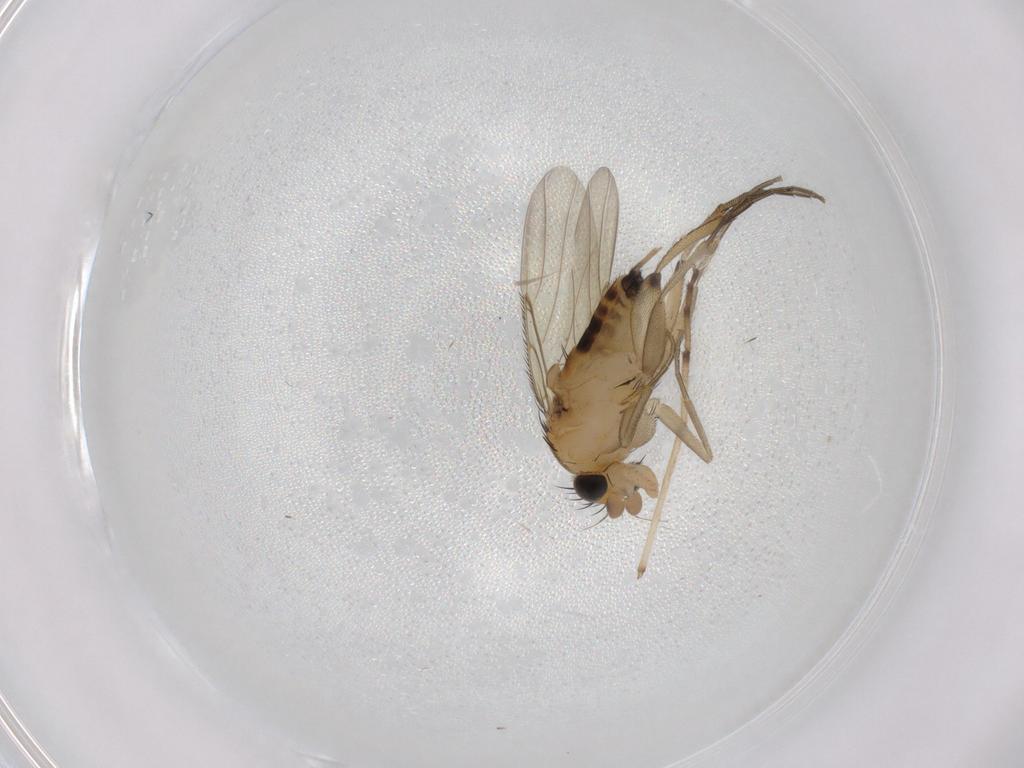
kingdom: Animalia
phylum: Arthropoda
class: Insecta
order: Diptera
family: Phoridae
